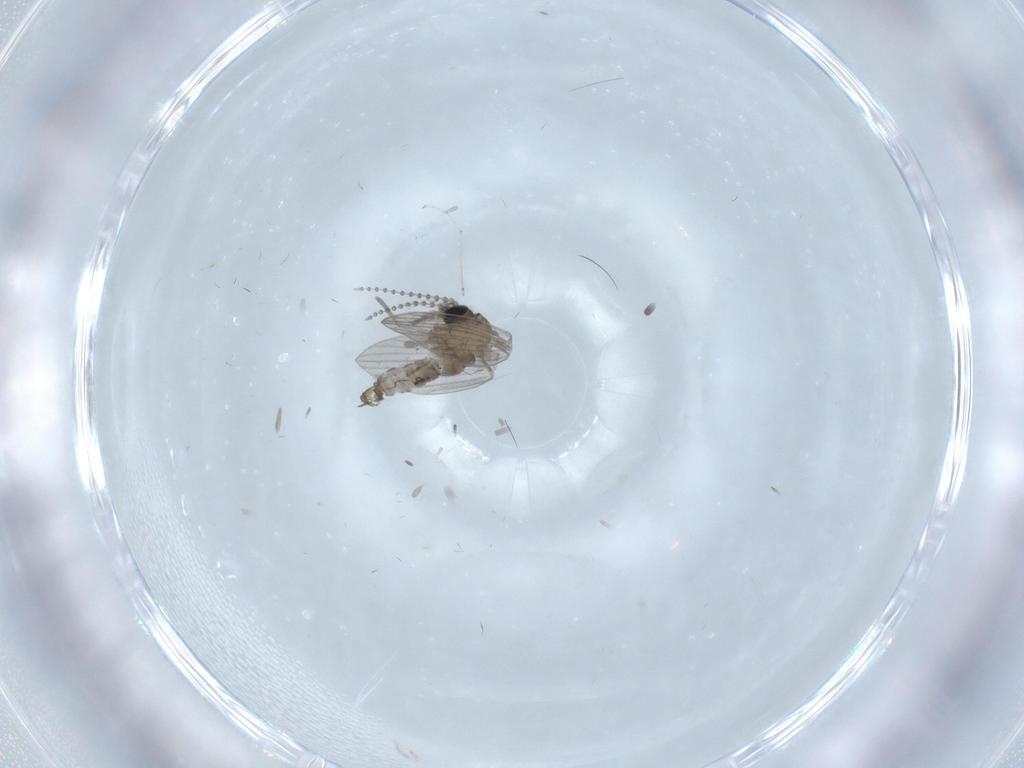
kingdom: Animalia
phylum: Arthropoda
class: Insecta
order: Diptera
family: Psychodidae
